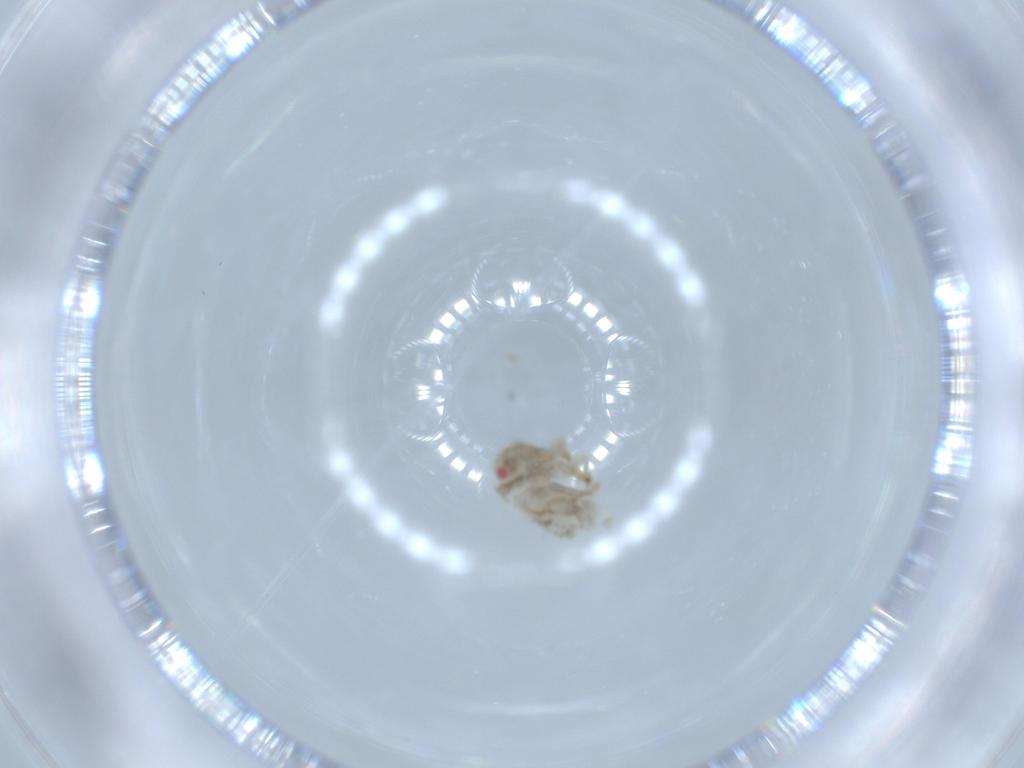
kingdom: Animalia
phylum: Arthropoda
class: Insecta
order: Hemiptera
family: Acanaloniidae
